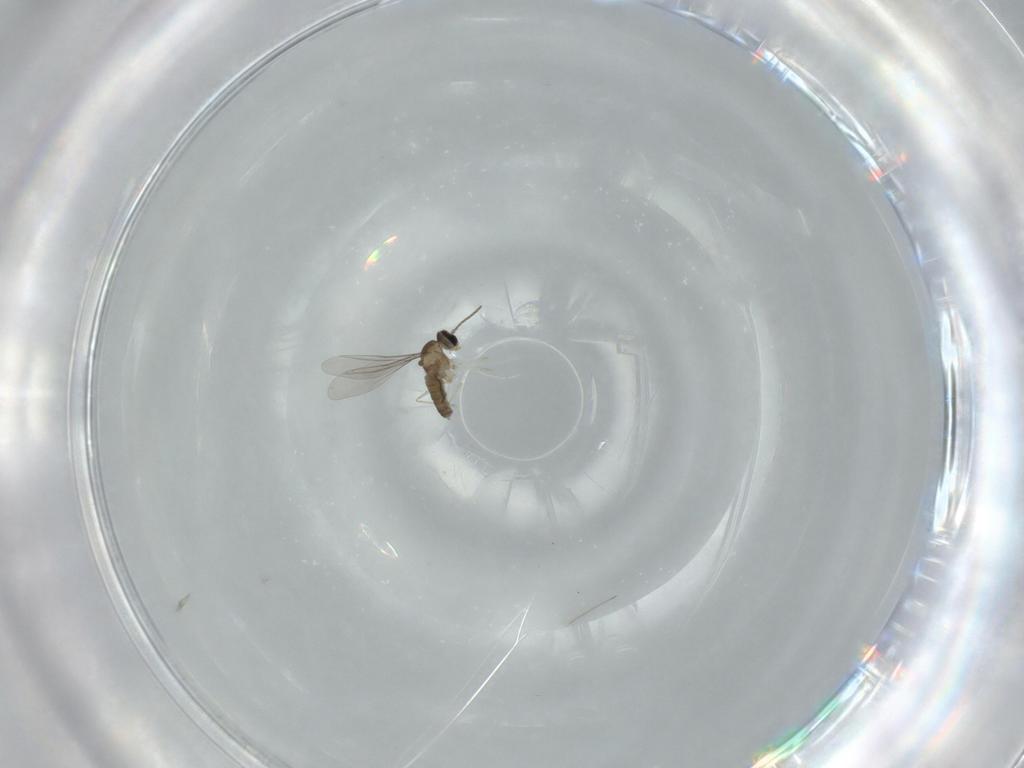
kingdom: Animalia
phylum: Arthropoda
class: Insecta
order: Diptera
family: Cecidomyiidae
